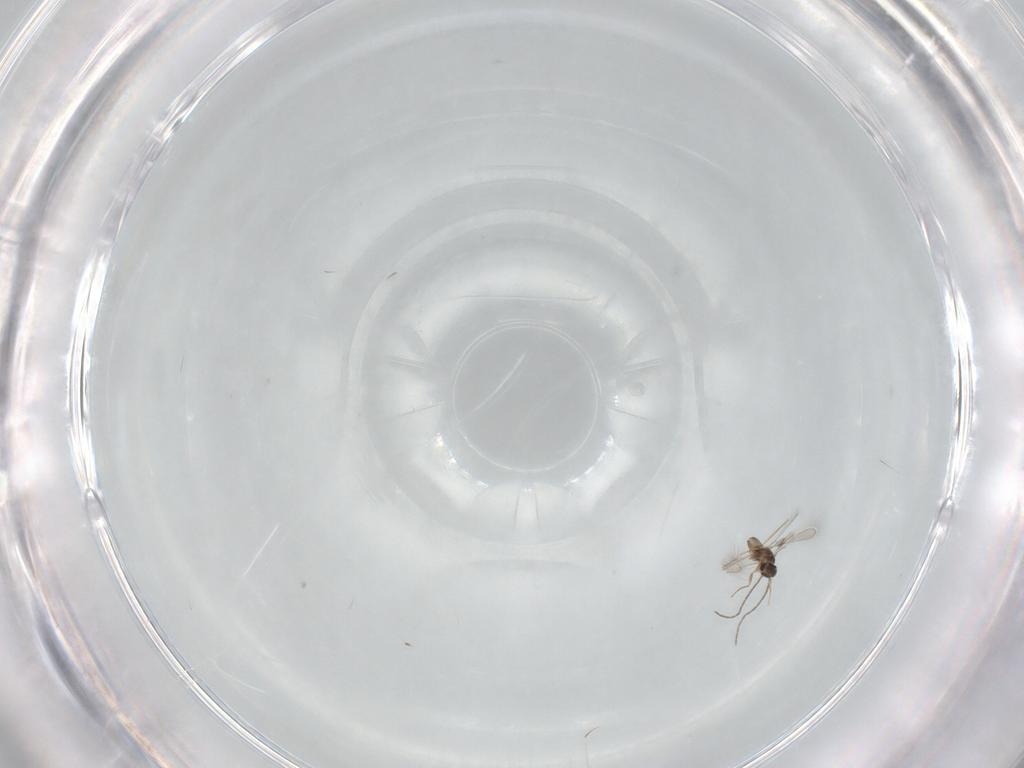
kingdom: Animalia
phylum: Arthropoda
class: Insecta
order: Hymenoptera
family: Mymaridae
